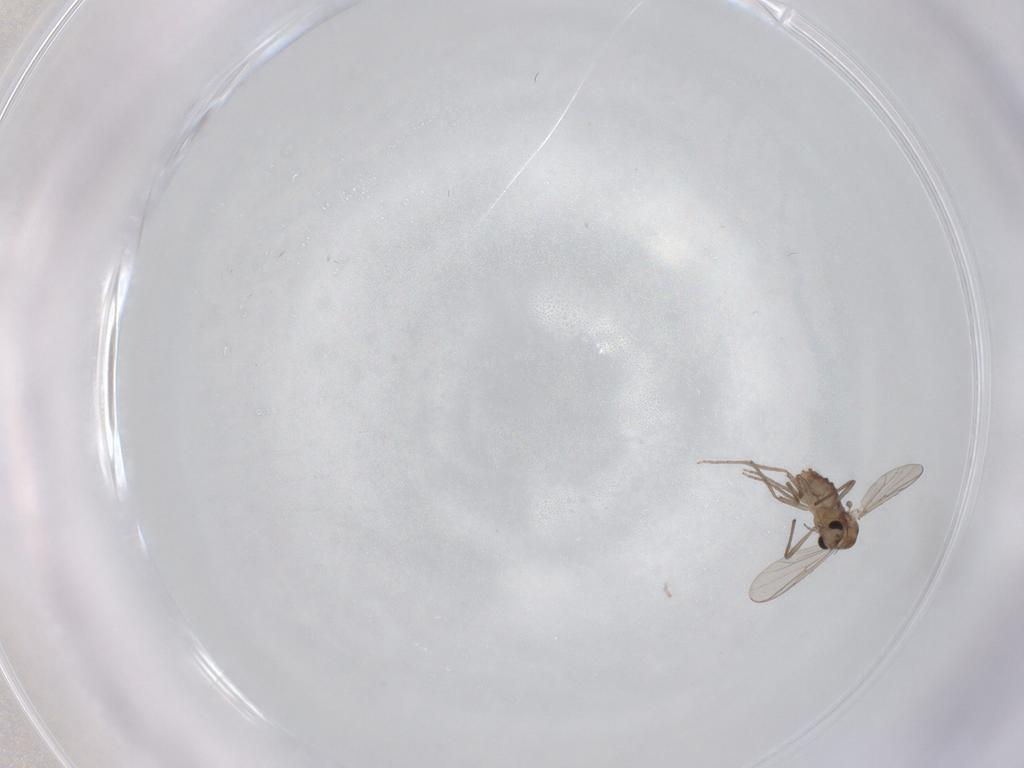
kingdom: Animalia
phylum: Arthropoda
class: Insecta
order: Diptera
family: Chironomidae
